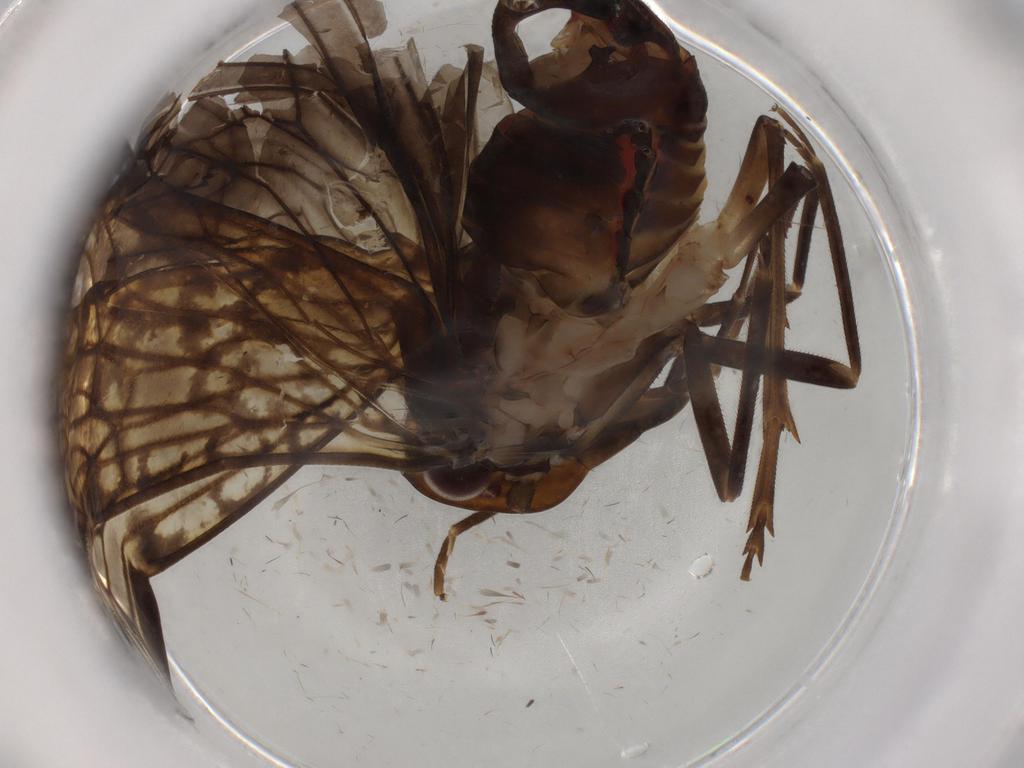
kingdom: Animalia
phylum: Arthropoda
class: Insecta
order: Hemiptera
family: Cixiidae
